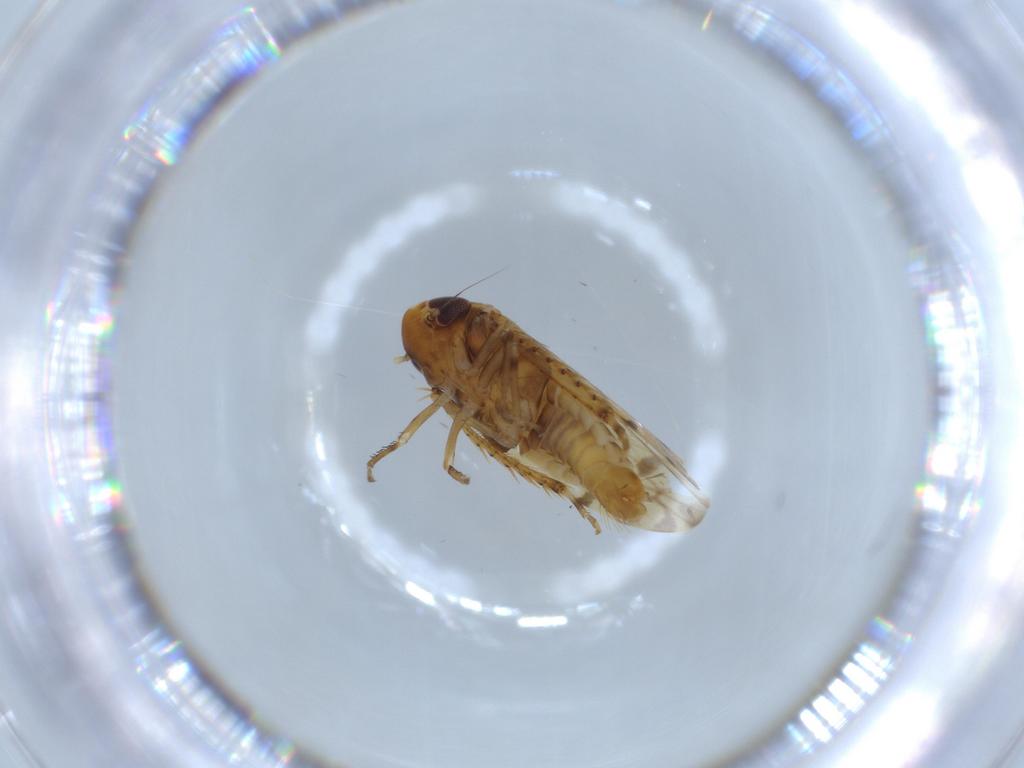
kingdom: Animalia
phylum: Arthropoda
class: Insecta
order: Hemiptera
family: Cicadellidae
